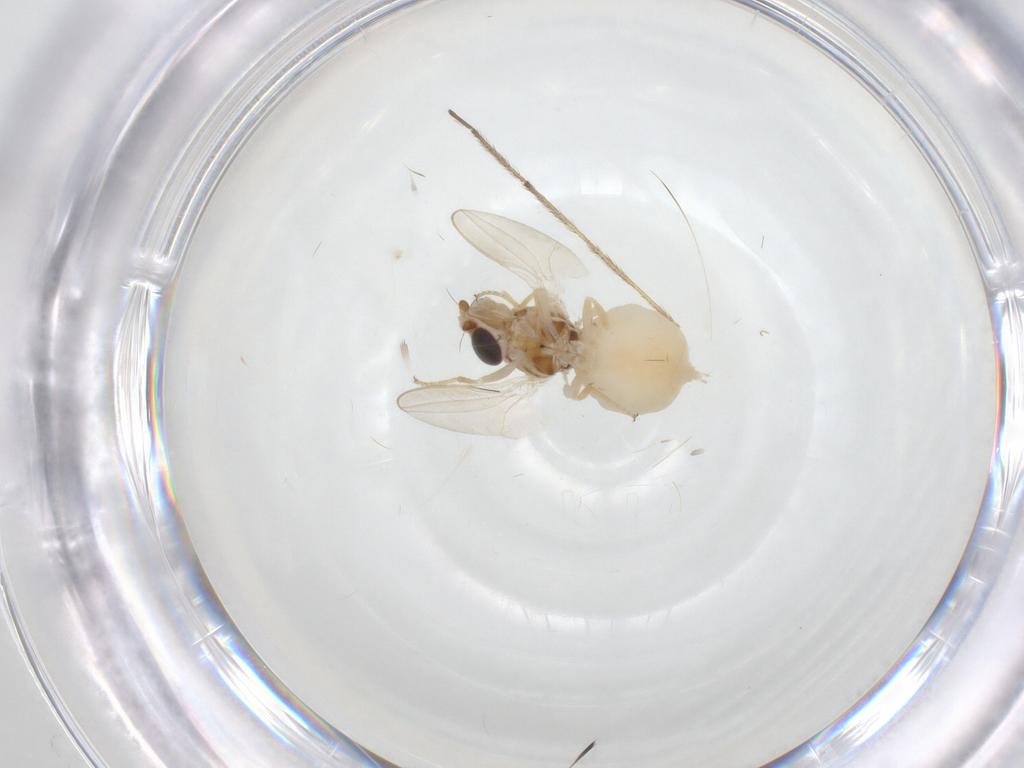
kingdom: Animalia
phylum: Arthropoda
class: Insecta
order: Diptera
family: Chloropidae
